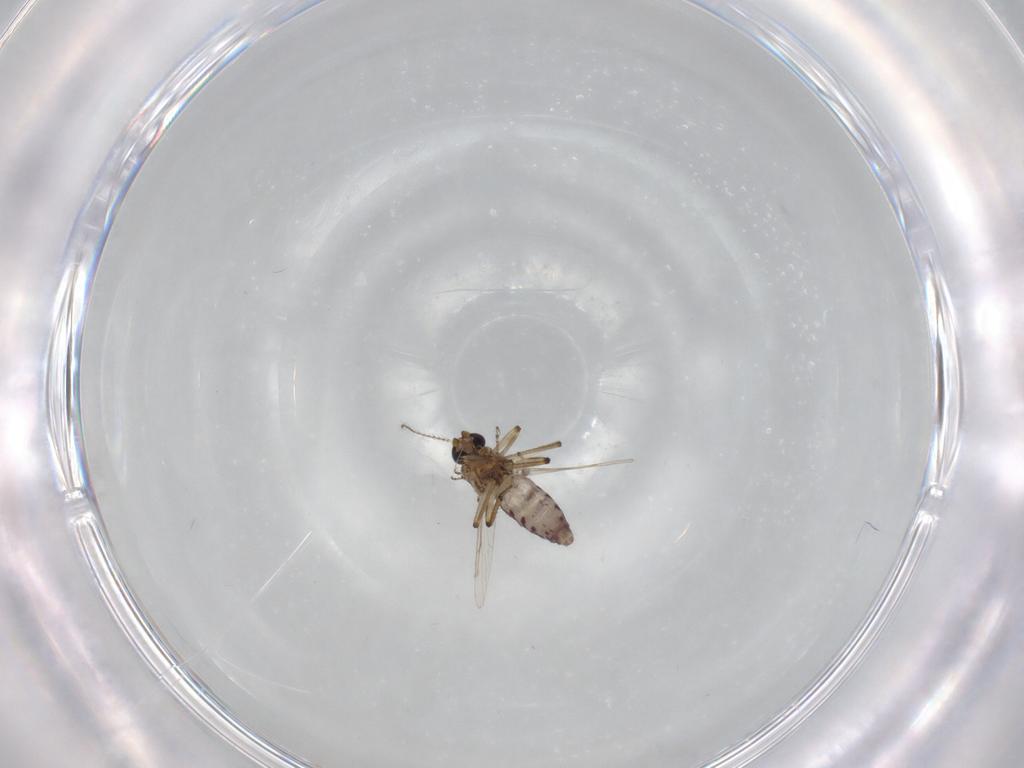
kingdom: Animalia
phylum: Arthropoda
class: Insecta
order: Diptera
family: Ceratopogonidae
